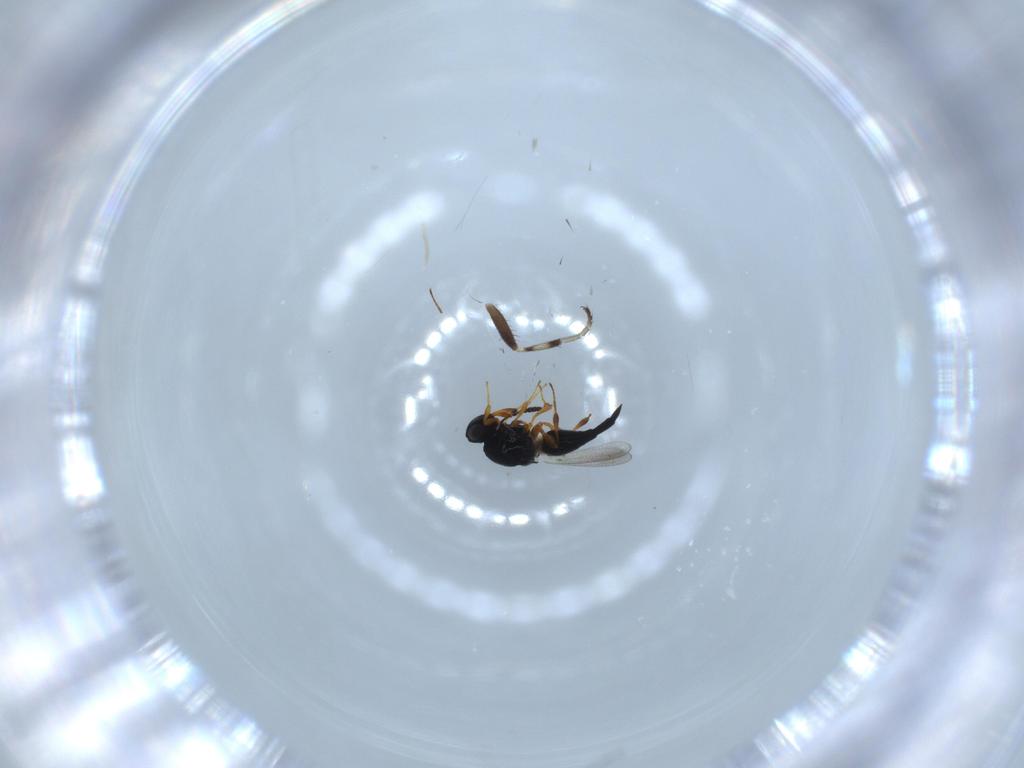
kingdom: Animalia
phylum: Arthropoda
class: Insecta
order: Hymenoptera
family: Platygastridae
